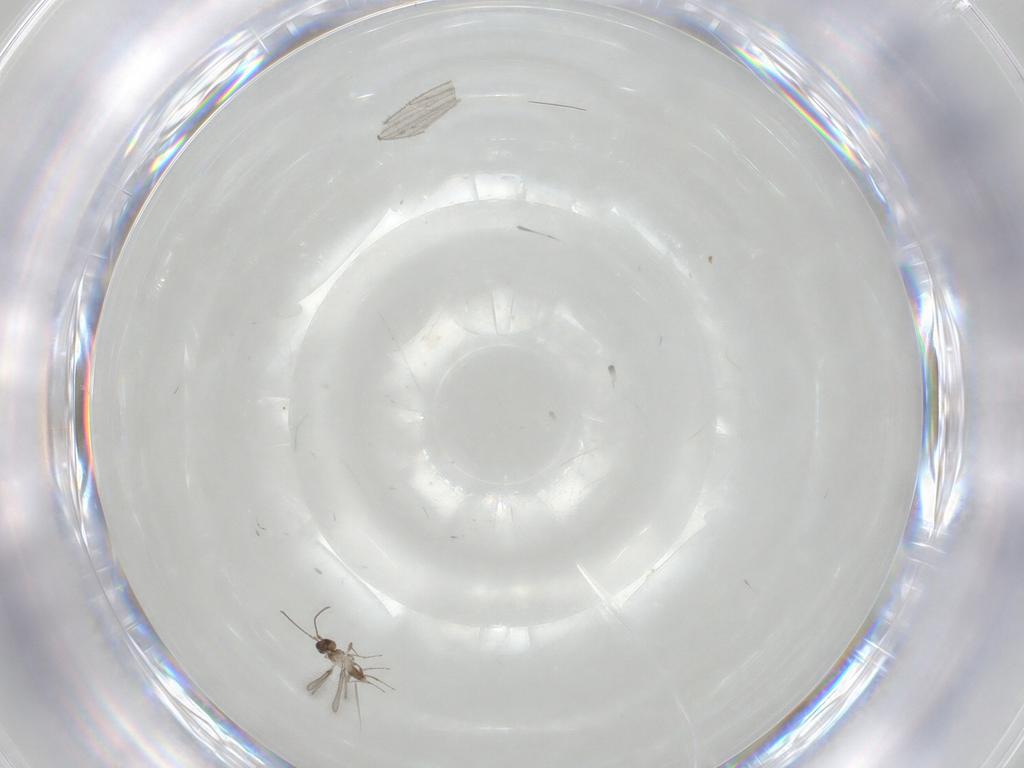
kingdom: Animalia
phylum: Arthropoda
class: Insecta
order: Hymenoptera
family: Mymaridae
